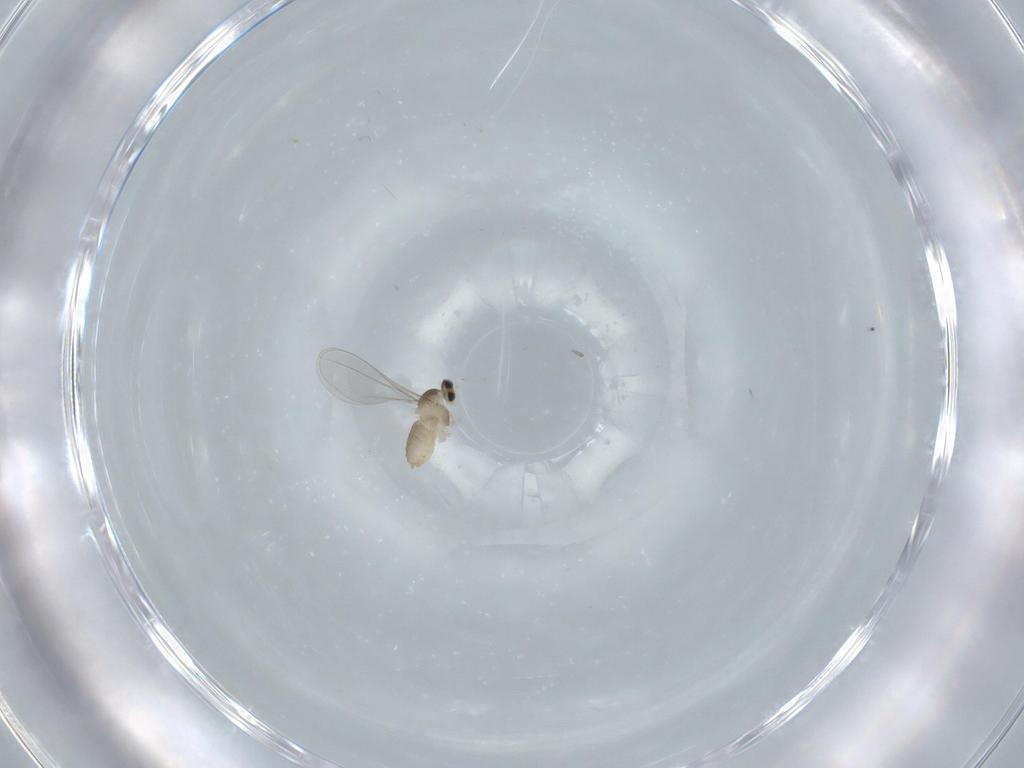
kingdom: Animalia
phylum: Arthropoda
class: Insecta
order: Diptera
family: Cecidomyiidae
